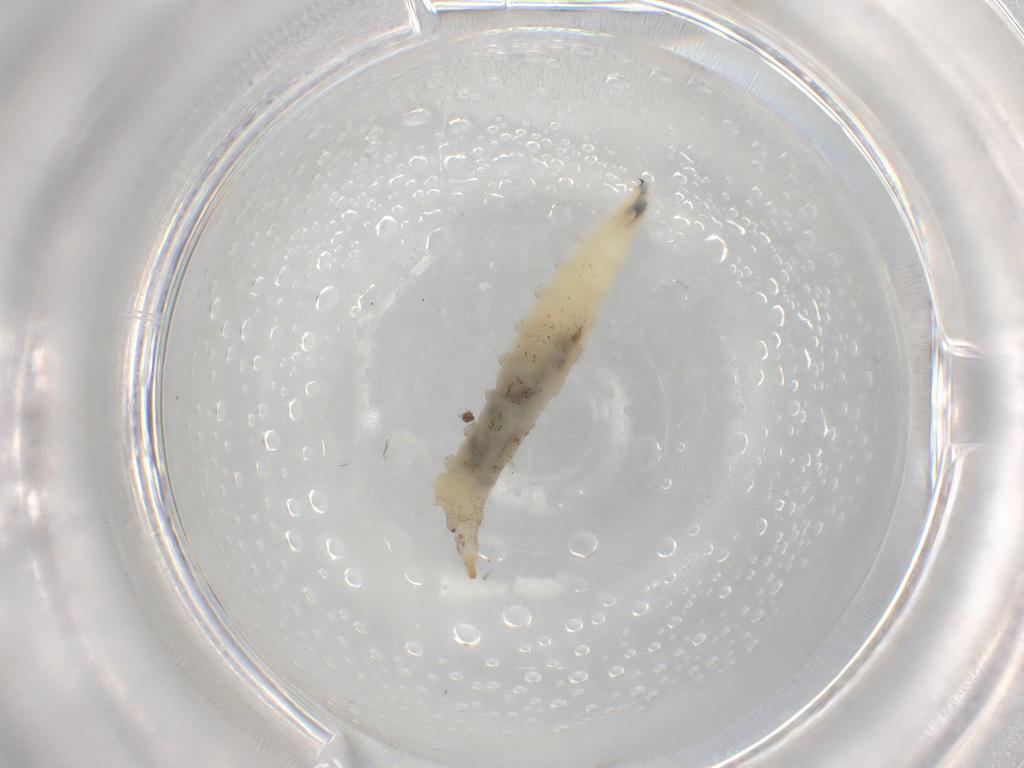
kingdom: Animalia
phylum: Arthropoda
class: Insecta
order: Diptera
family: Drosophilidae
